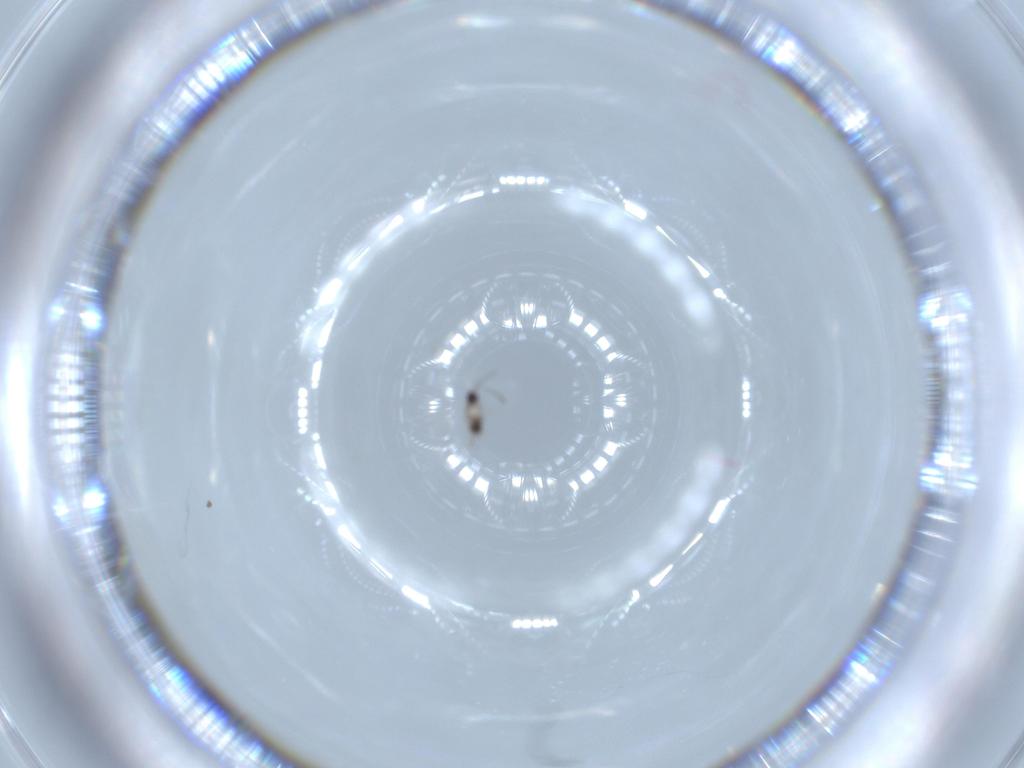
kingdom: Animalia
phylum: Arthropoda
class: Insecta
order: Hymenoptera
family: Mymaridae
